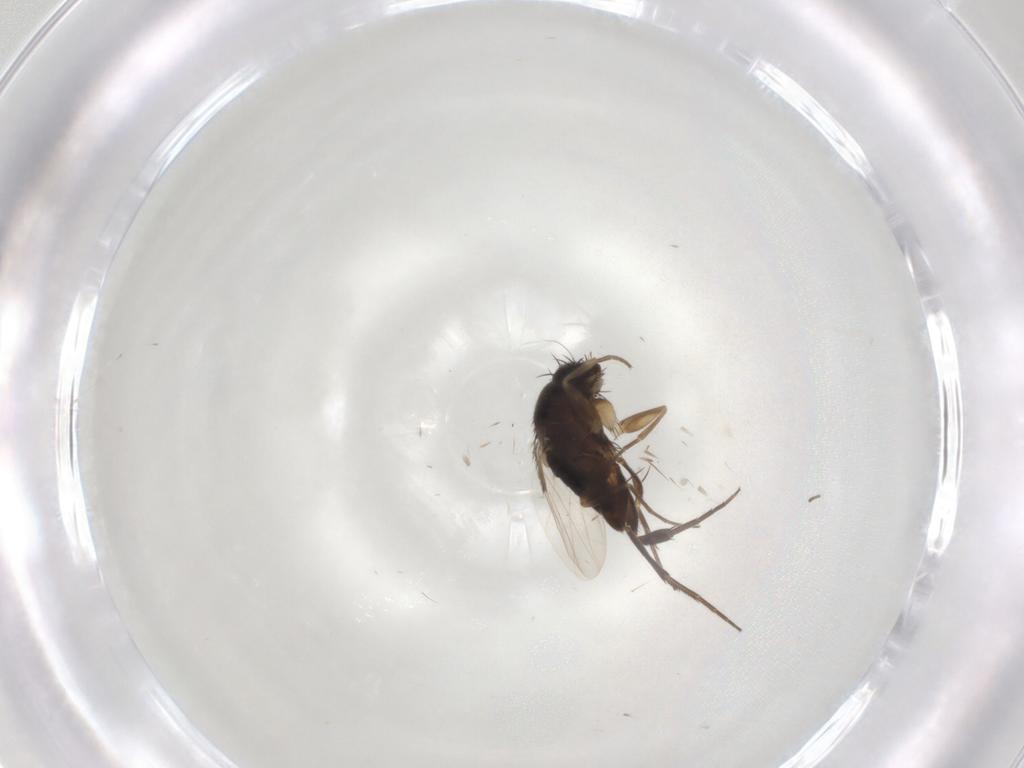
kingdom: Animalia
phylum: Arthropoda
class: Insecta
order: Diptera
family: Phoridae
